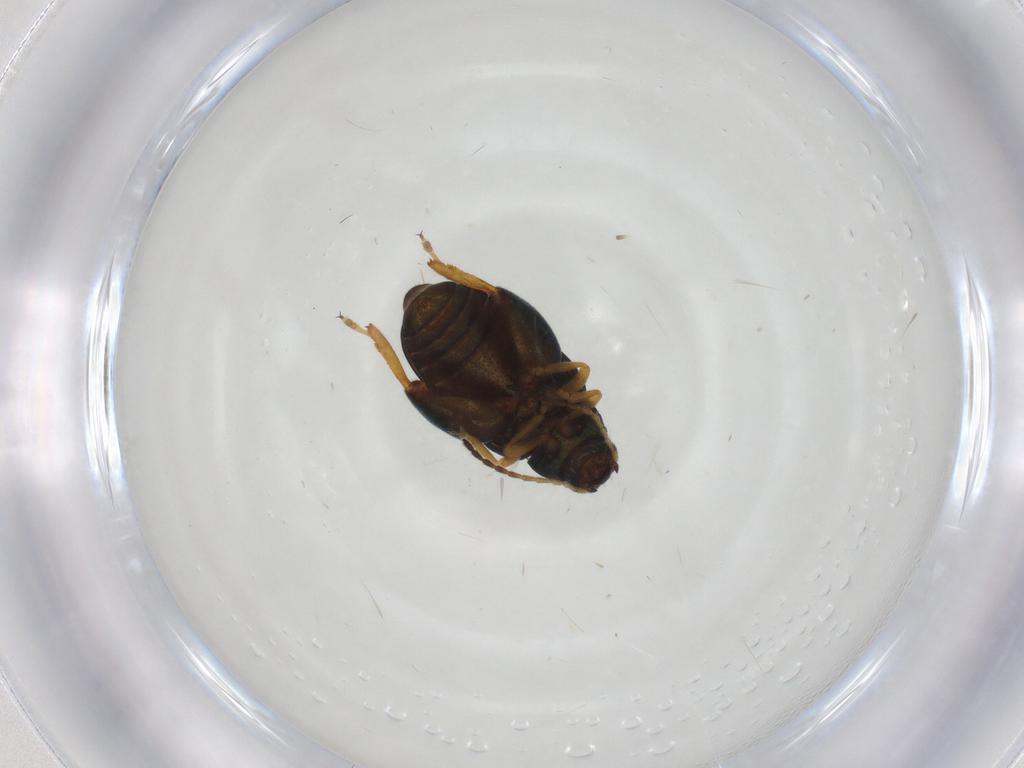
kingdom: Animalia
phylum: Arthropoda
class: Insecta
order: Coleoptera
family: Chrysomelidae
